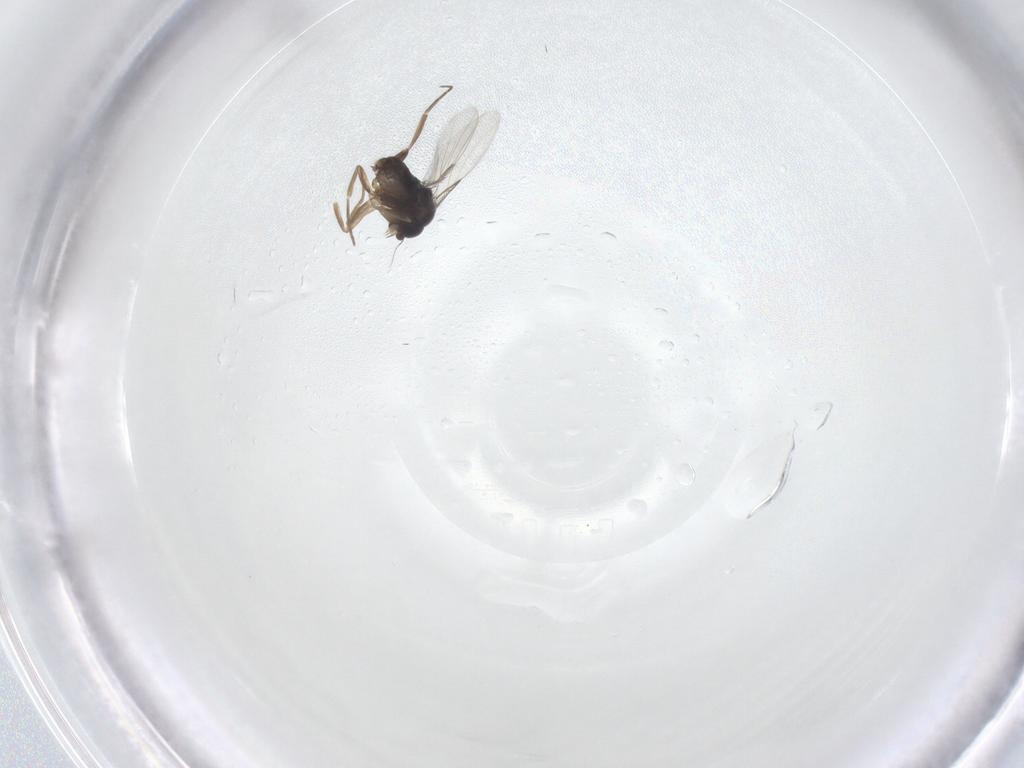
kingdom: Animalia
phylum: Arthropoda
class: Insecta
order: Diptera
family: Phoridae
